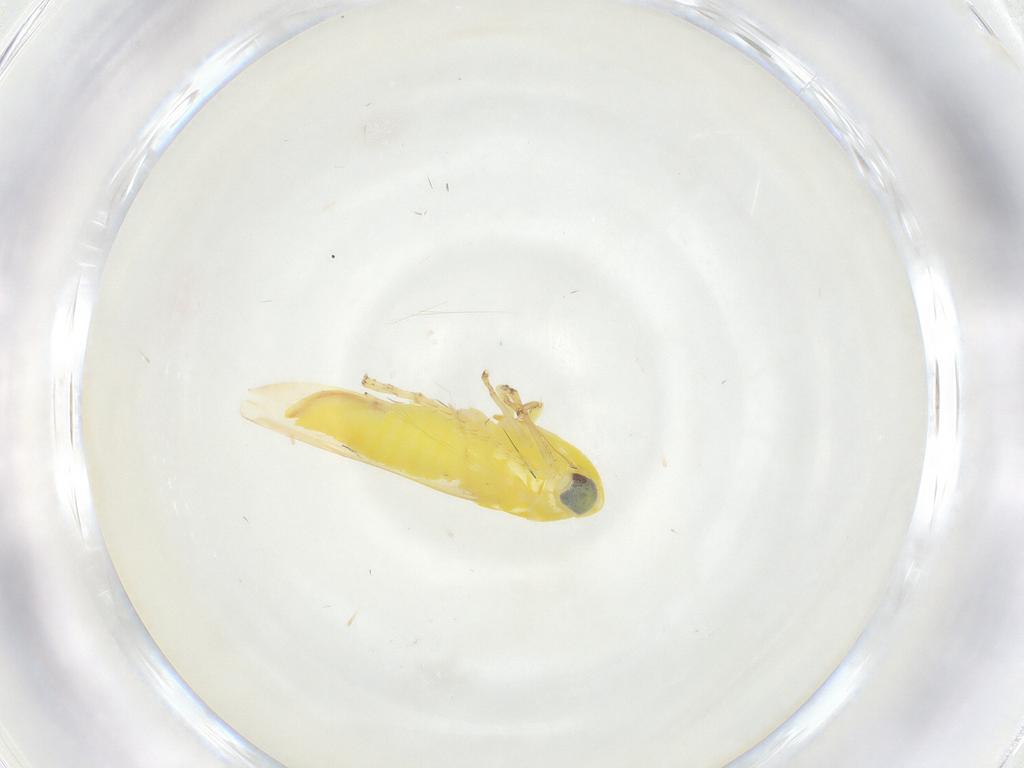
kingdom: Animalia
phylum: Arthropoda
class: Insecta
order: Hemiptera
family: Cicadellidae
